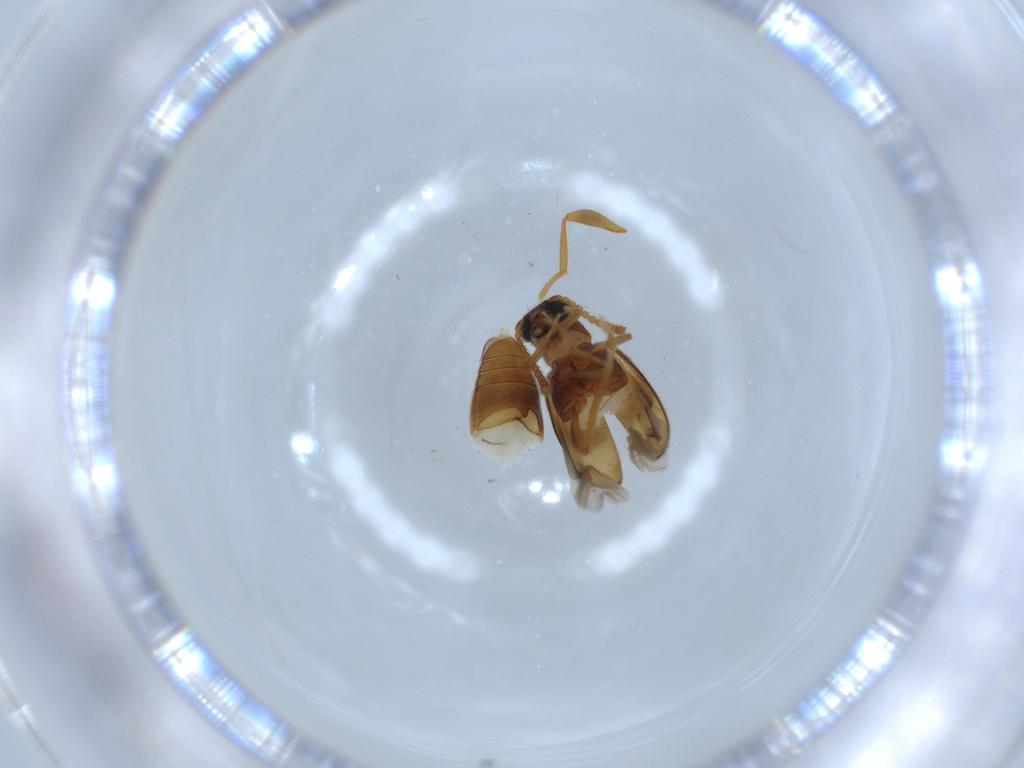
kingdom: Animalia
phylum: Arthropoda
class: Insecta
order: Coleoptera
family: Aderidae
